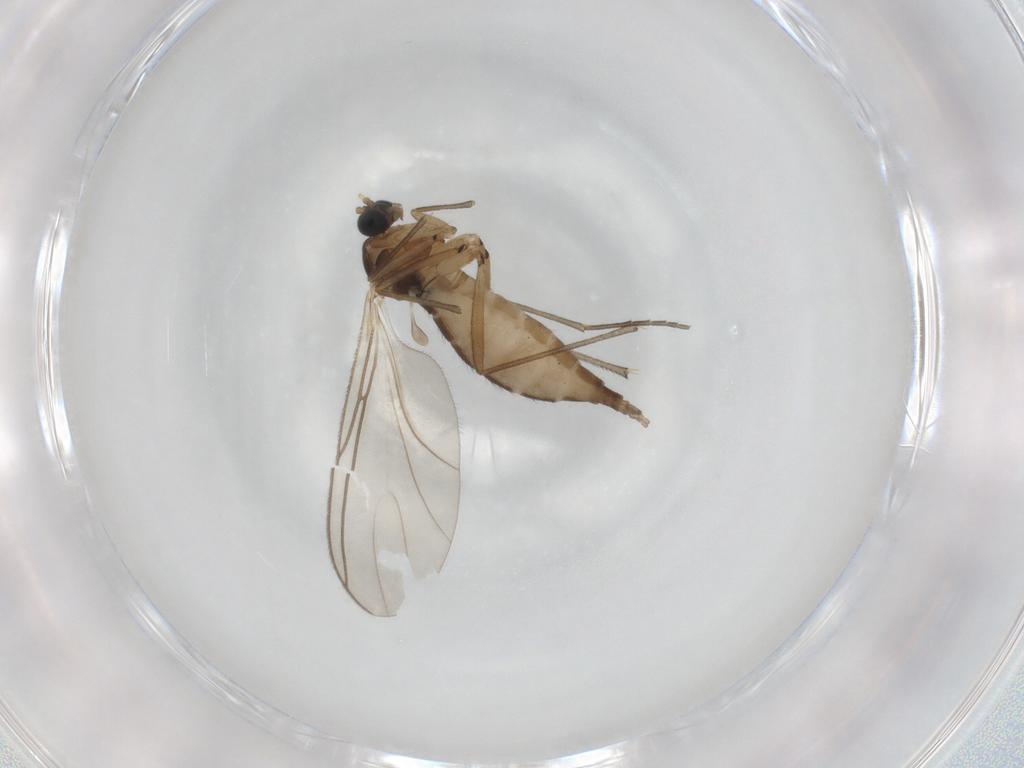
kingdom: Animalia
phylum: Arthropoda
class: Insecta
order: Diptera
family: Sciaridae
